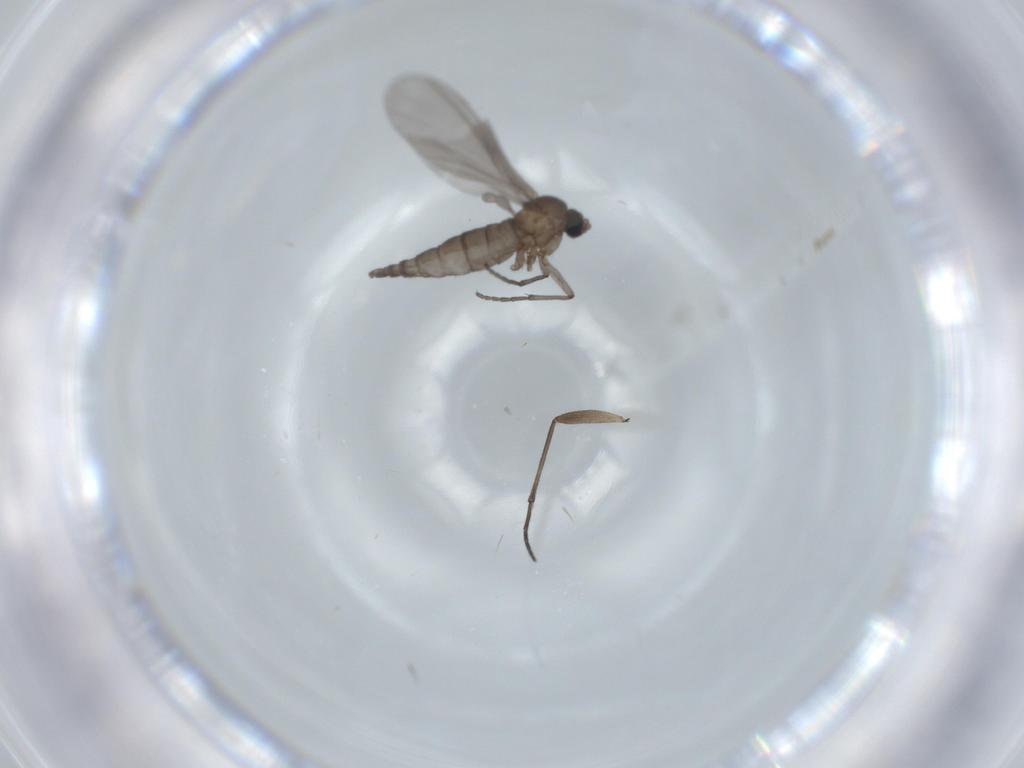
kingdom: Animalia
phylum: Arthropoda
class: Insecta
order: Diptera
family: Sciaridae
